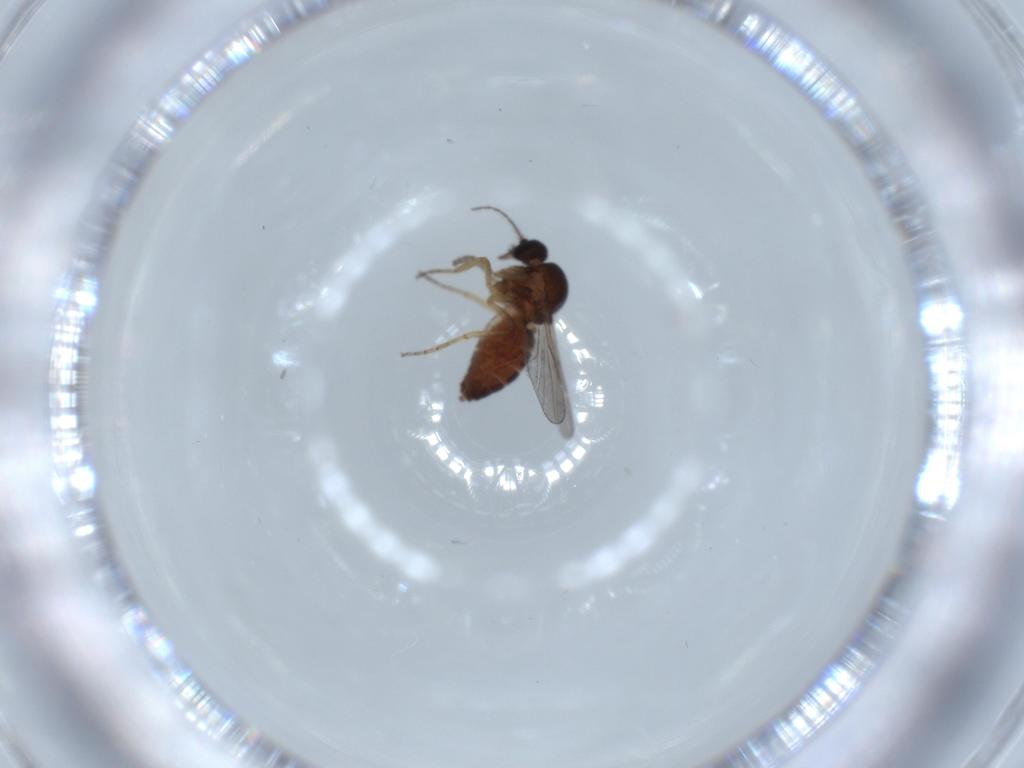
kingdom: Animalia
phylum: Arthropoda
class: Insecta
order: Diptera
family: Ceratopogonidae
